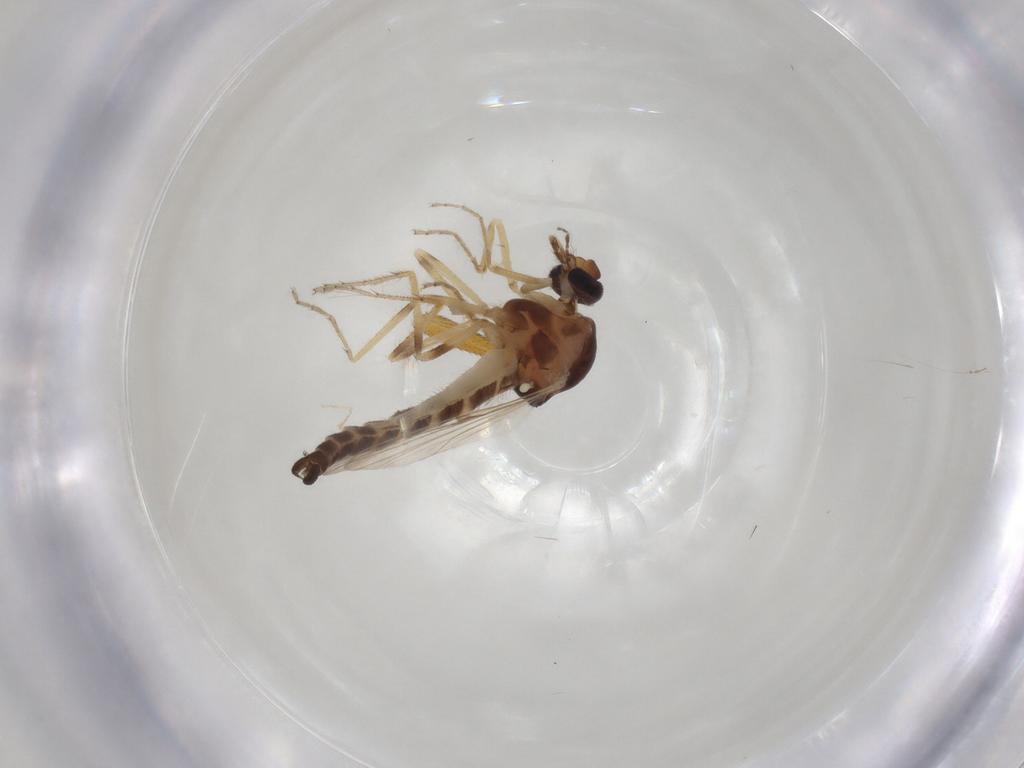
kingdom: Animalia
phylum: Arthropoda
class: Insecta
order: Diptera
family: Ceratopogonidae
